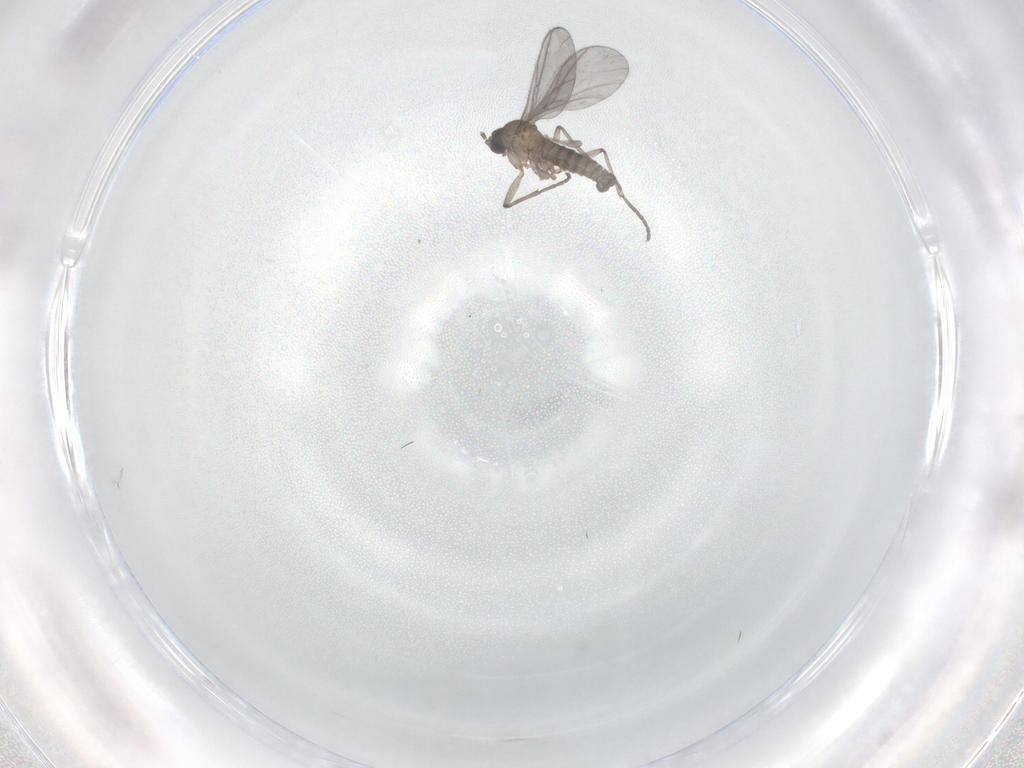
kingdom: Animalia
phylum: Arthropoda
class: Insecta
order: Diptera
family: Sciaridae
